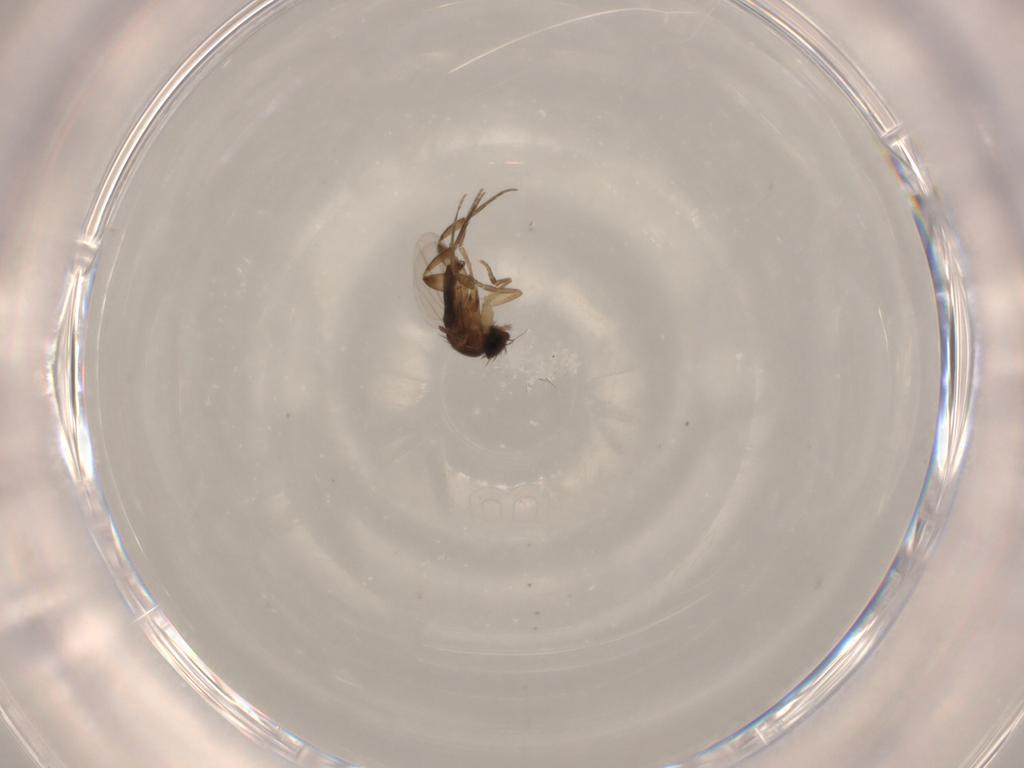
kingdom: Animalia
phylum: Arthropoda
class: Insecta
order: Diptera
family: Phoridae
